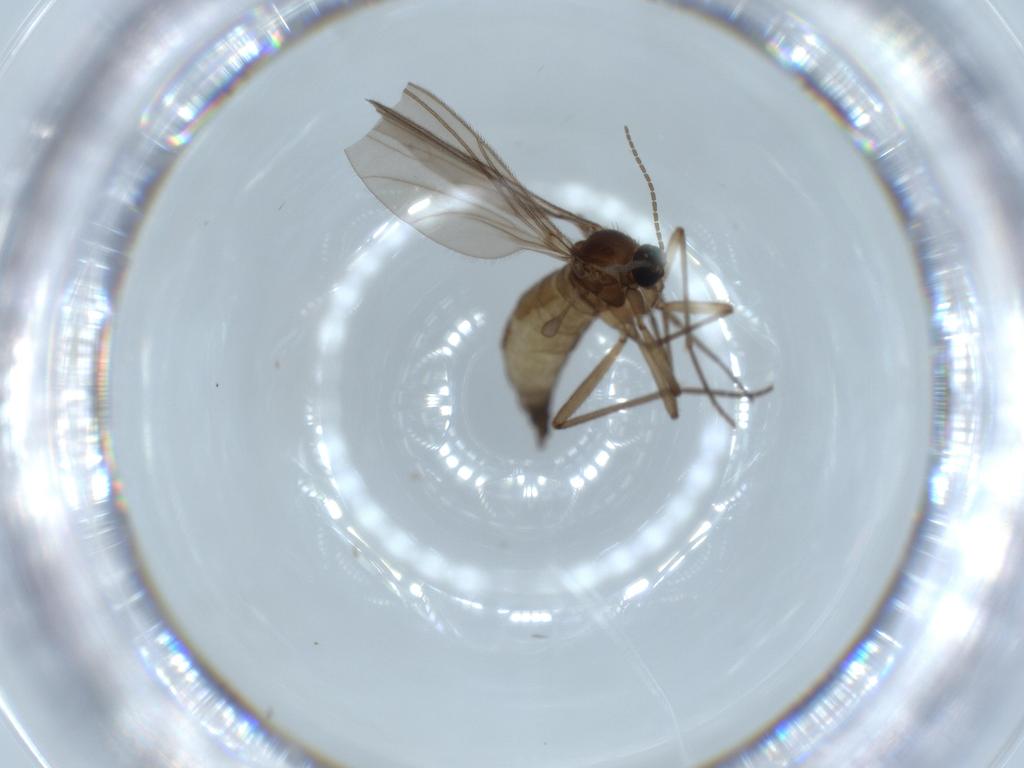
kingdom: Animalia
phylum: Arthropoda
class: Insecta
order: Diptera
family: Sciaridae
